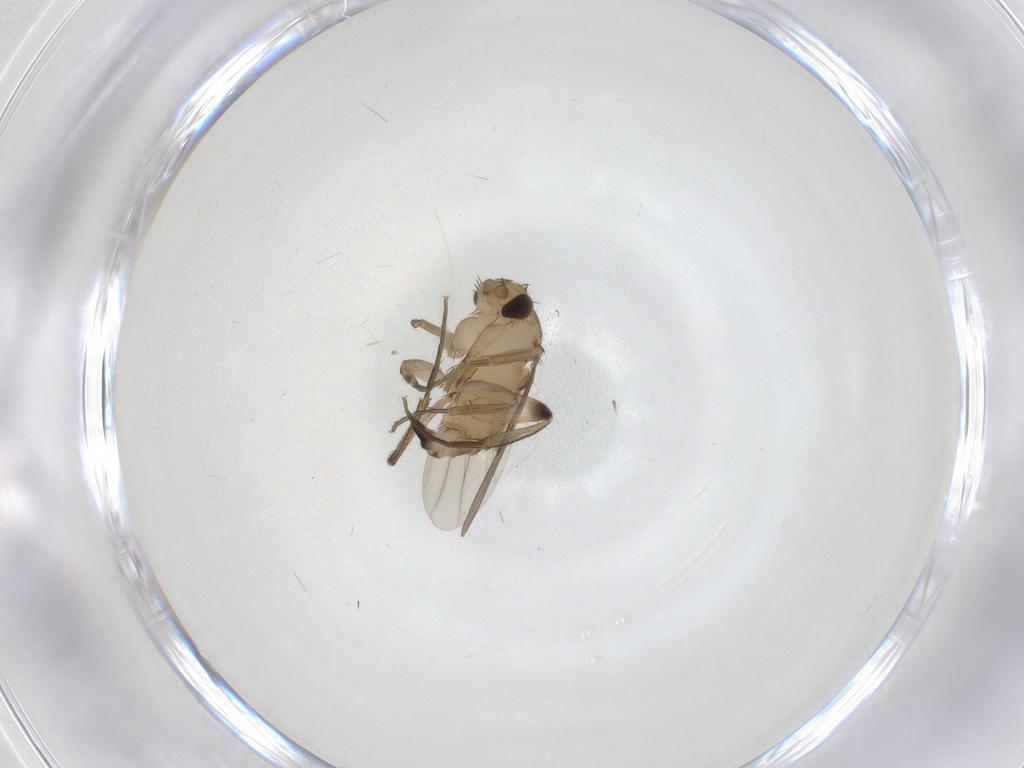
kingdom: Animalia
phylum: Arthropoda
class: Insecta
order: Diptera
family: Phoridae
